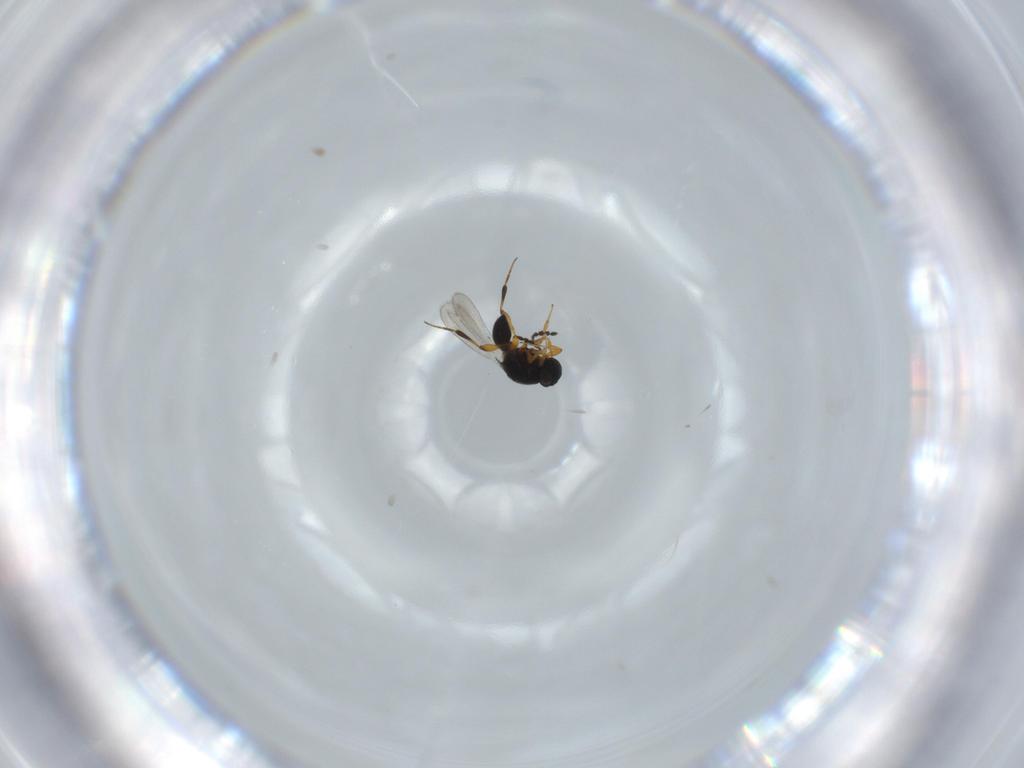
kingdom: Animalia
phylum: Arthropoda
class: Insecta
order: Hymenoptera
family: Platygastridae
